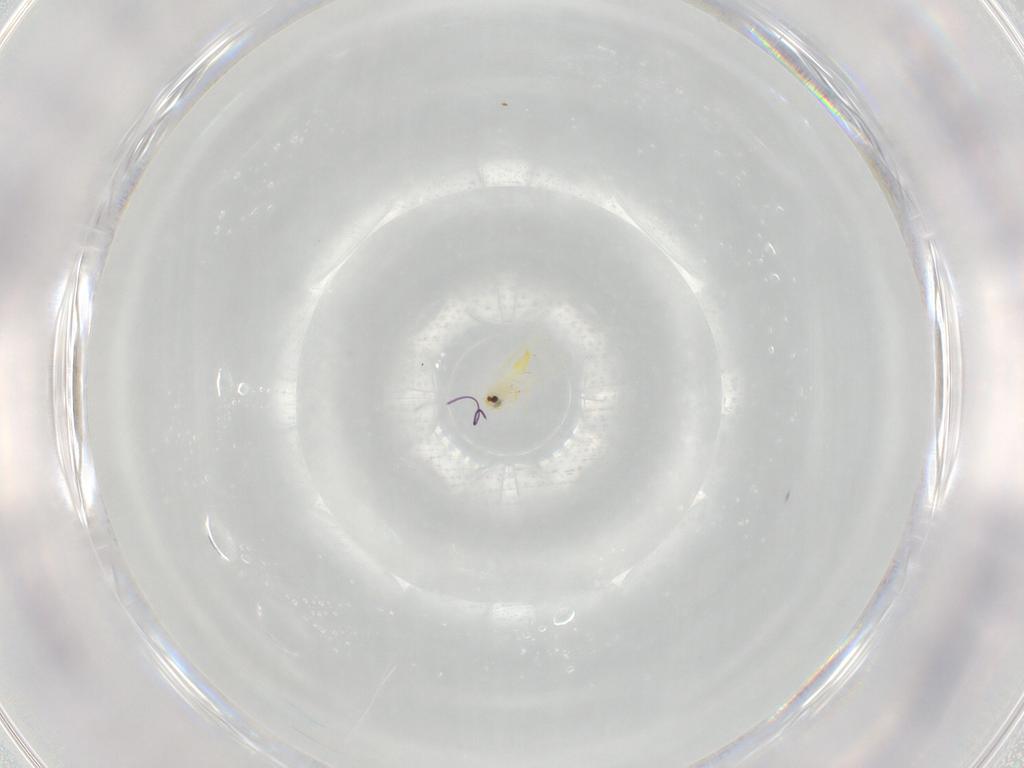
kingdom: Animalia
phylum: Arthropoda
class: Insecta
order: Hemiptera
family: Aleyrodidae
